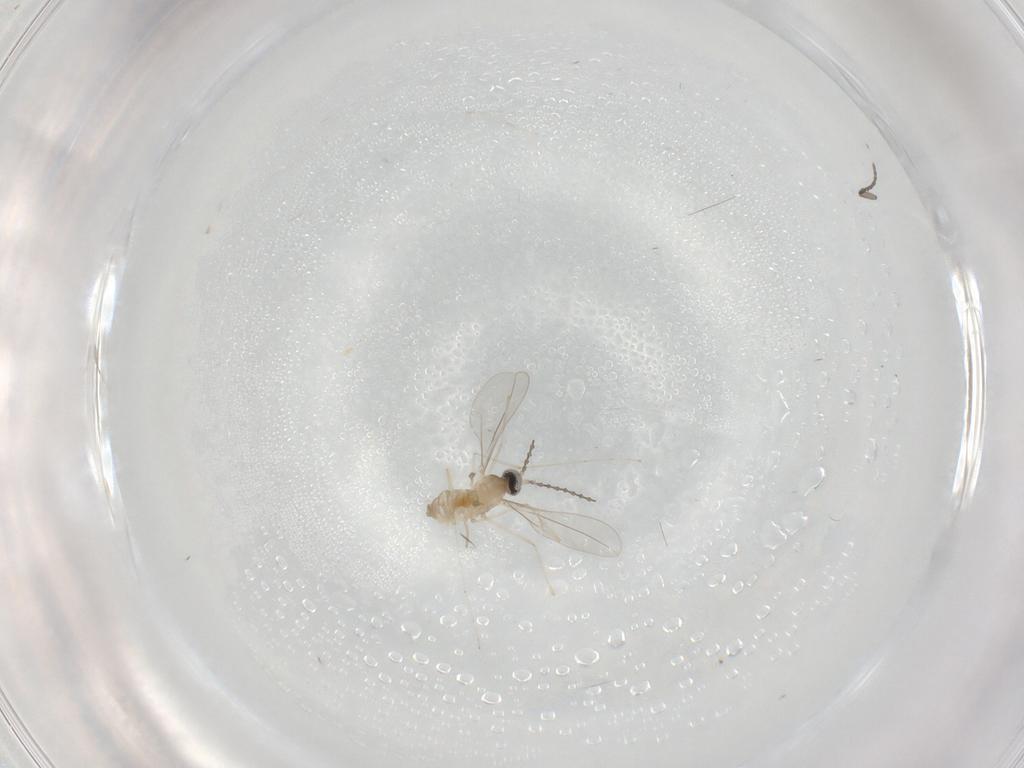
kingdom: Animalia
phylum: Arthropoda
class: Insecta
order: Diptera
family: Cecidomyiidae
